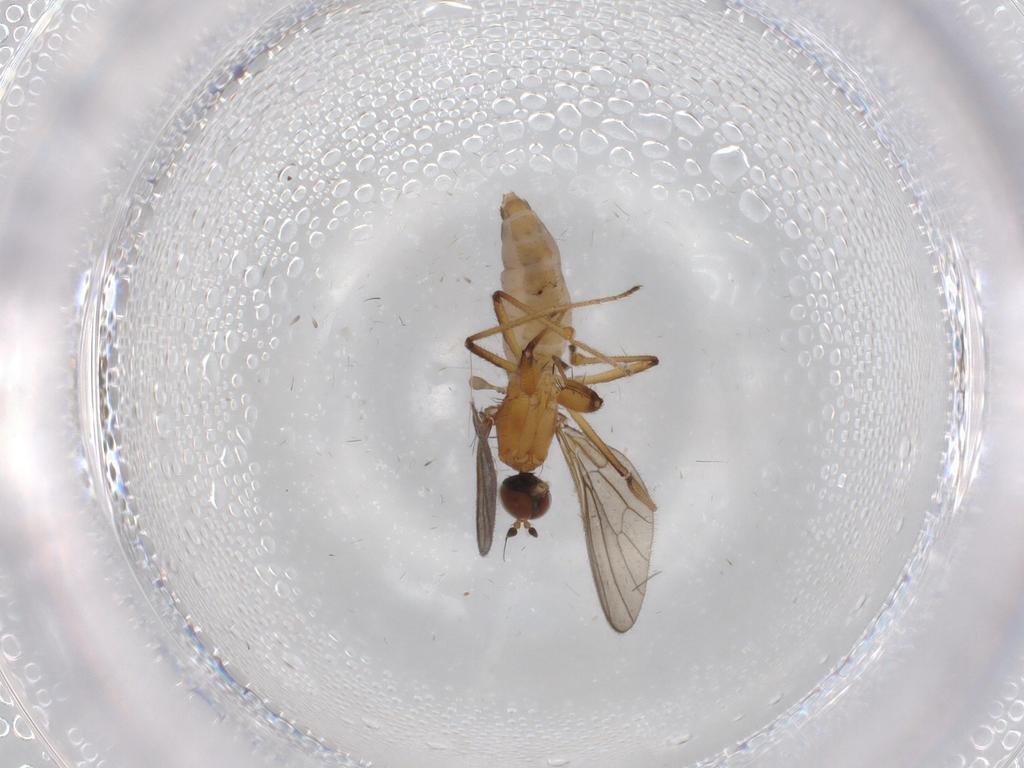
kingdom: Animalia
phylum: Arthropoda
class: Insecta
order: Diptera
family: Empididae
